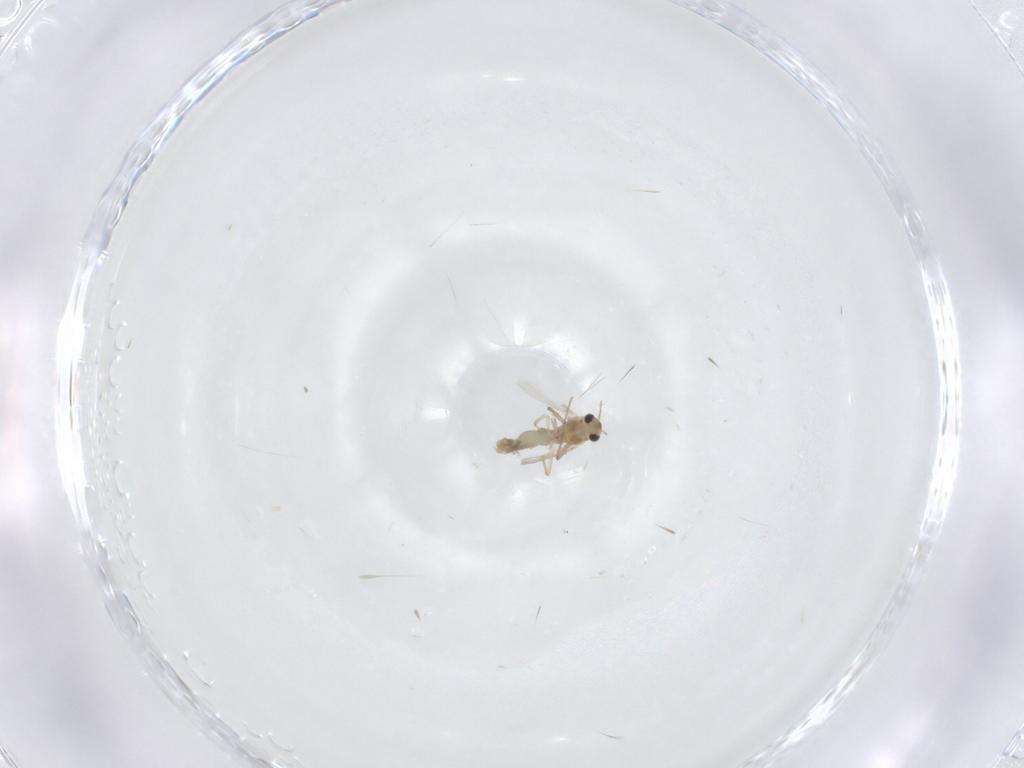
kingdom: Animalia
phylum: Arthropoda
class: Insecta
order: Diptera
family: Chironomidae
